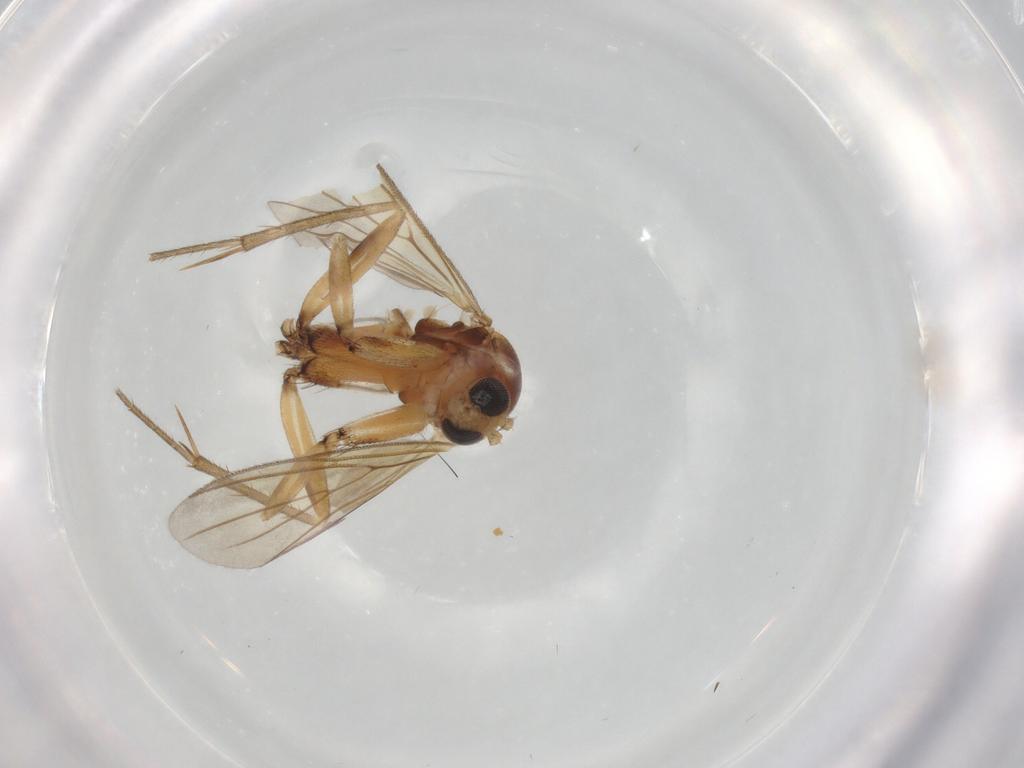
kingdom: Animalia
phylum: Arthropoda
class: Insecta
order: Diptera
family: Mycetophilidae
